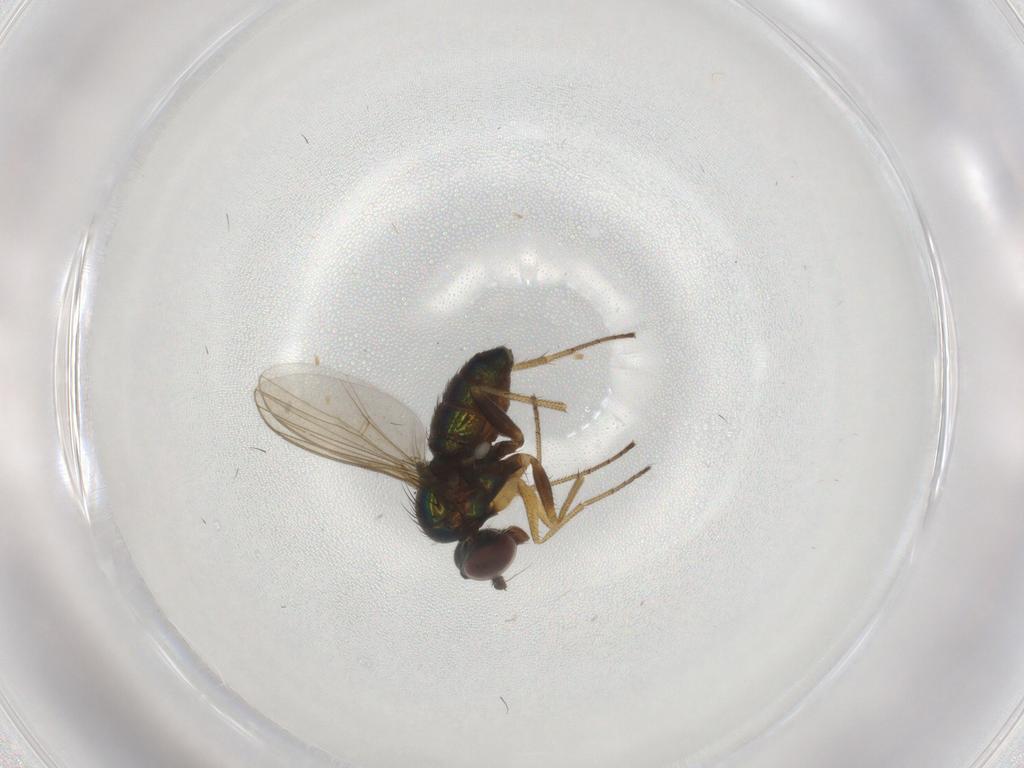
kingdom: Animalia
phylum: Arthropoda
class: Insecta
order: Diptera
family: Dolichopodidae
